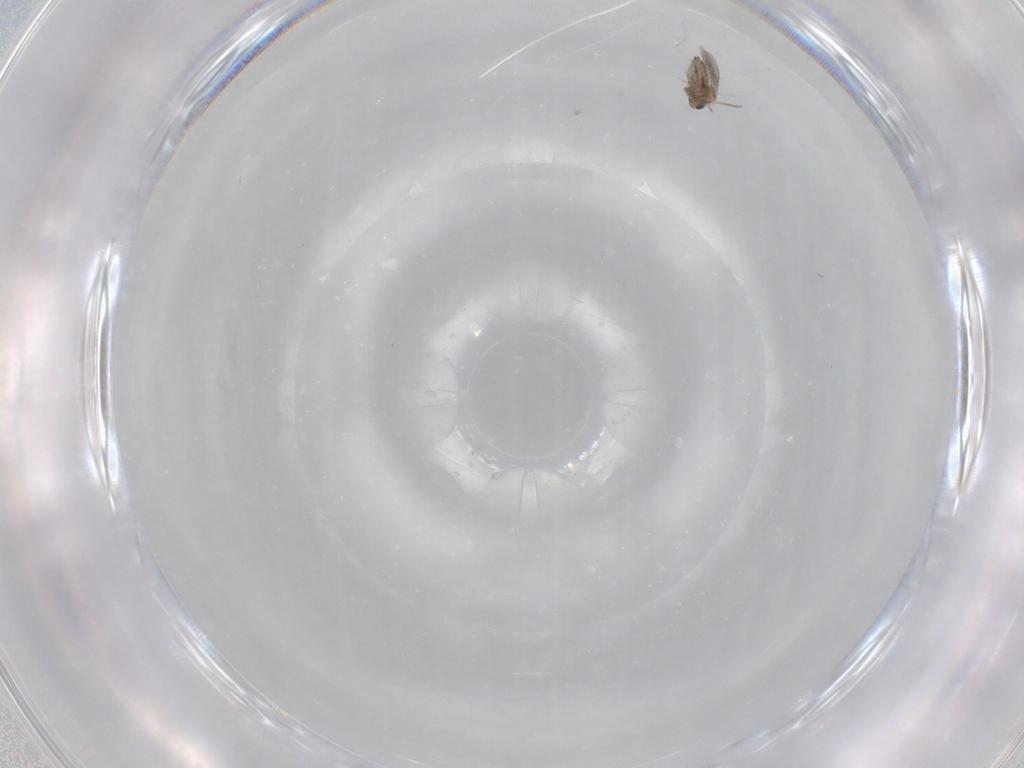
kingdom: Animalia
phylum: Arthropoda
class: Insecta
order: Diptera
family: Cecidomyiidae
